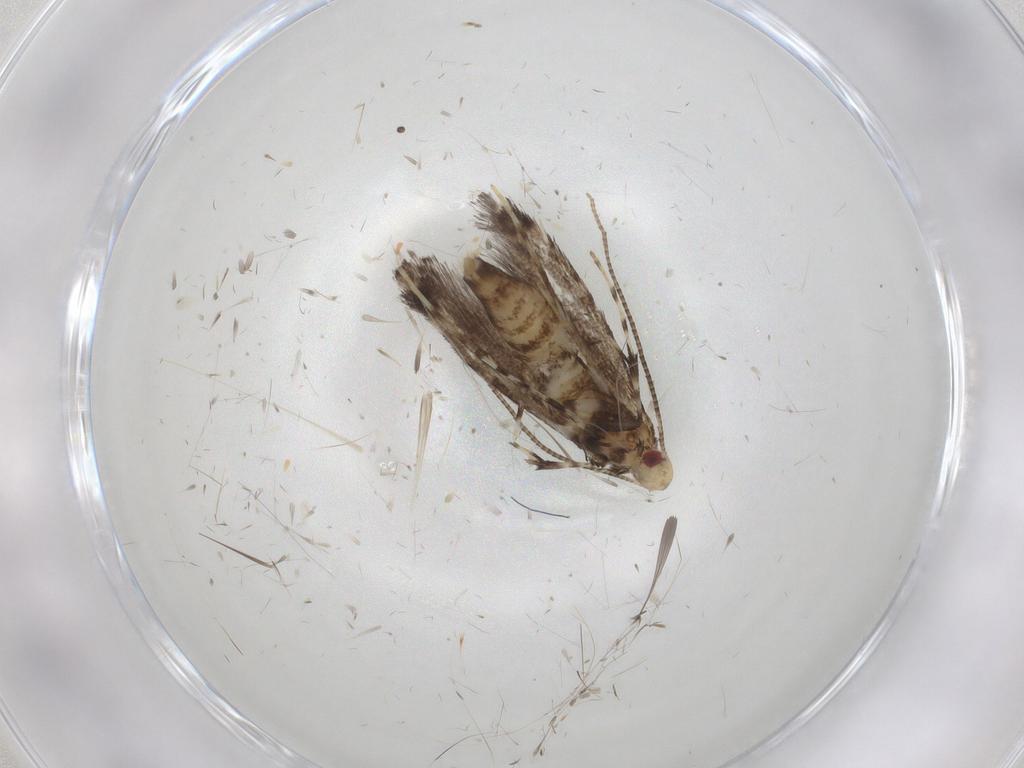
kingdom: Animalia
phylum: Arthropoda
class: Insecta
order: Lepidoptera
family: Gracillariidae
